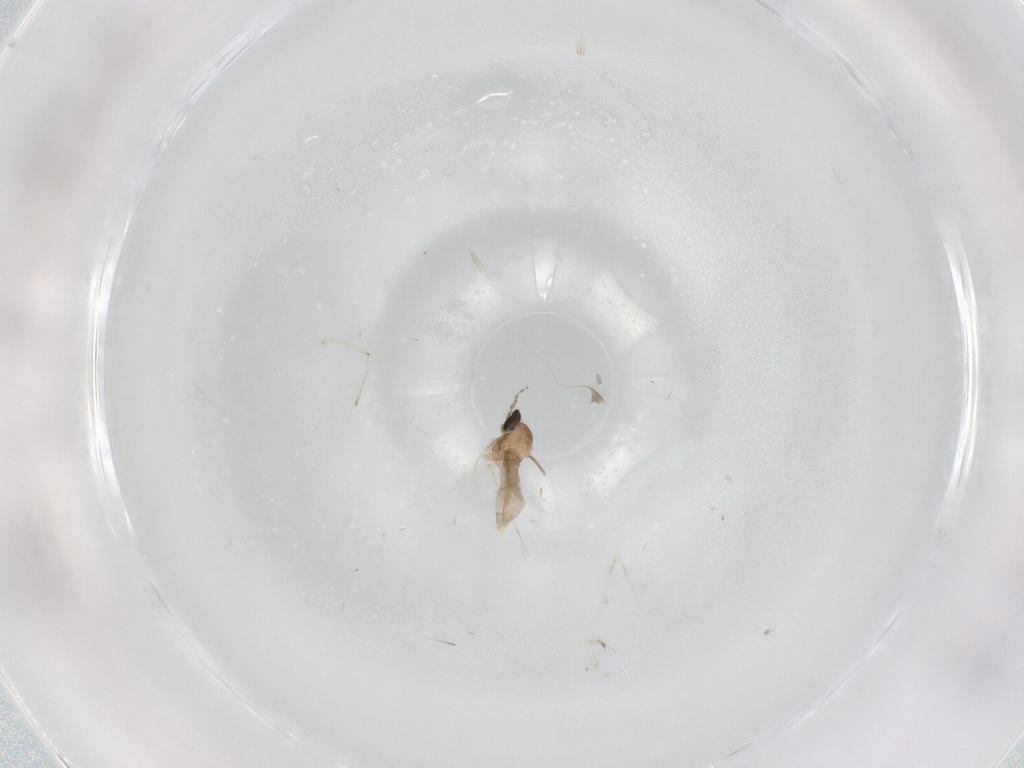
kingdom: Animalia
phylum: Arthropoda
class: Insecta
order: Diptera
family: Cecidomyiidae
